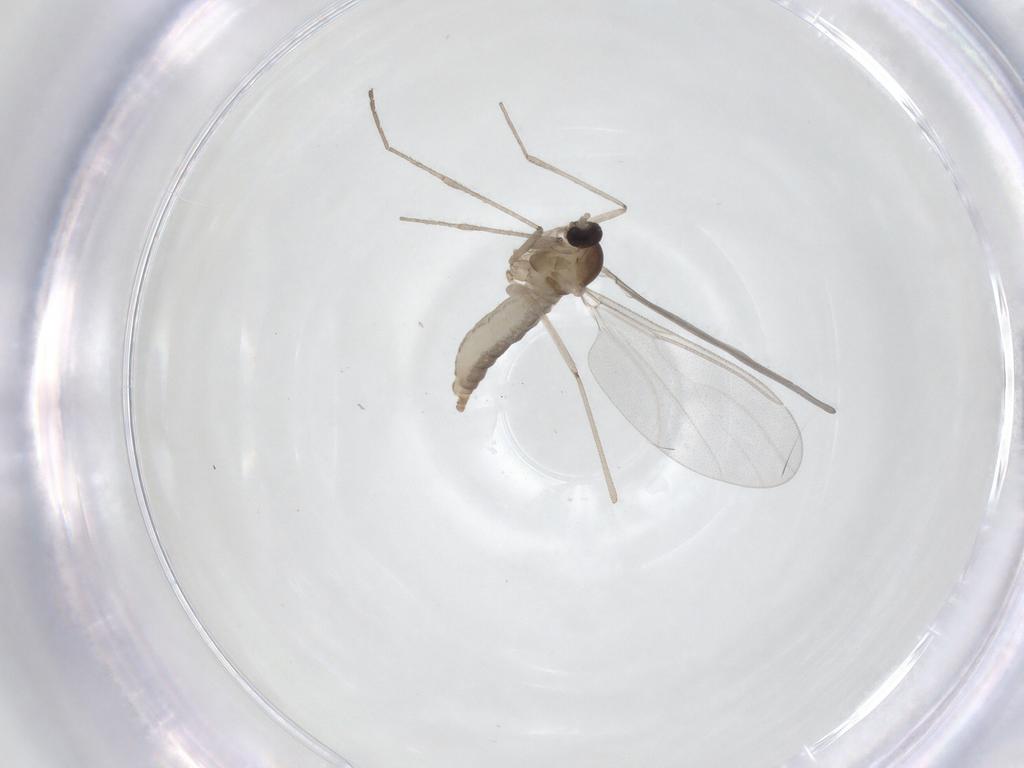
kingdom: Animalia
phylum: Arthropoda
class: Insecta
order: Diptera
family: Cecidomyiidae
